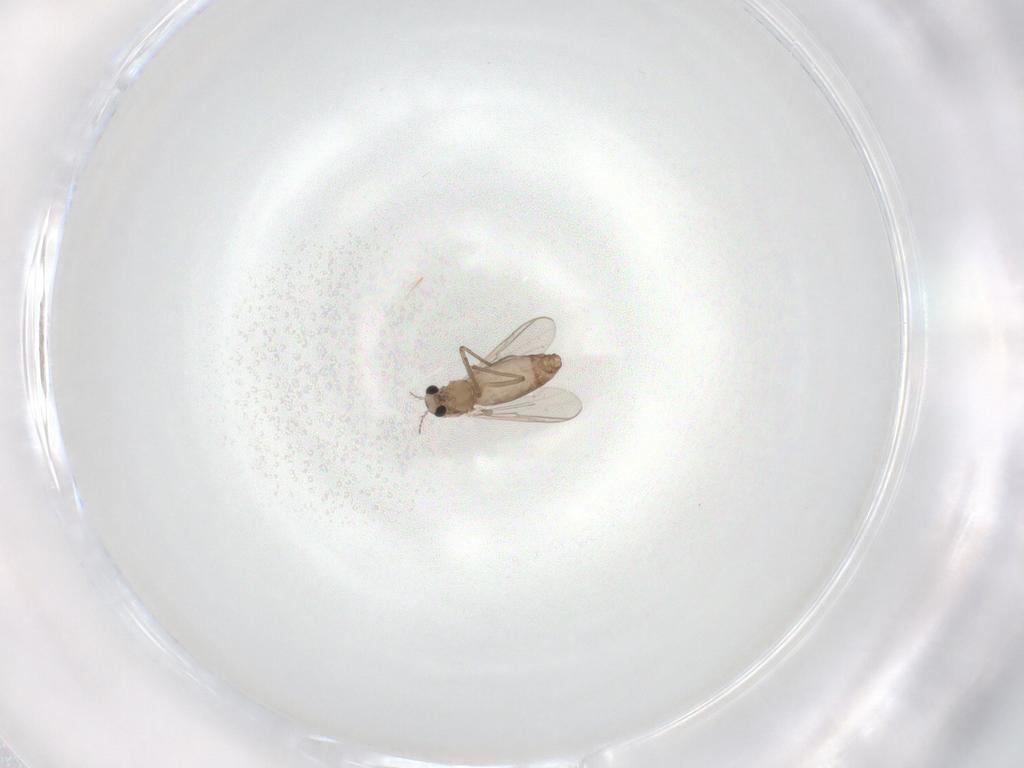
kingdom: Animalia
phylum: Arthropoda
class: Insecta
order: Diptera
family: Chironomidae
